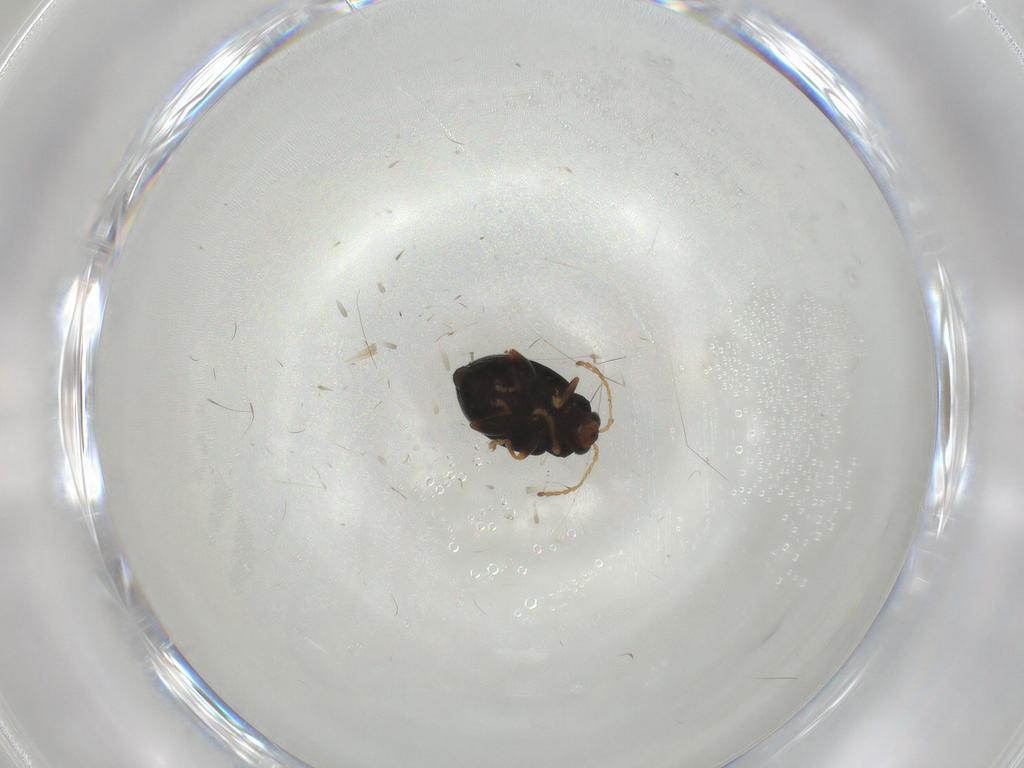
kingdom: Animalia
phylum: Arthropoda
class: Insecta
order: Coleoptera
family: Chrysomelidae
